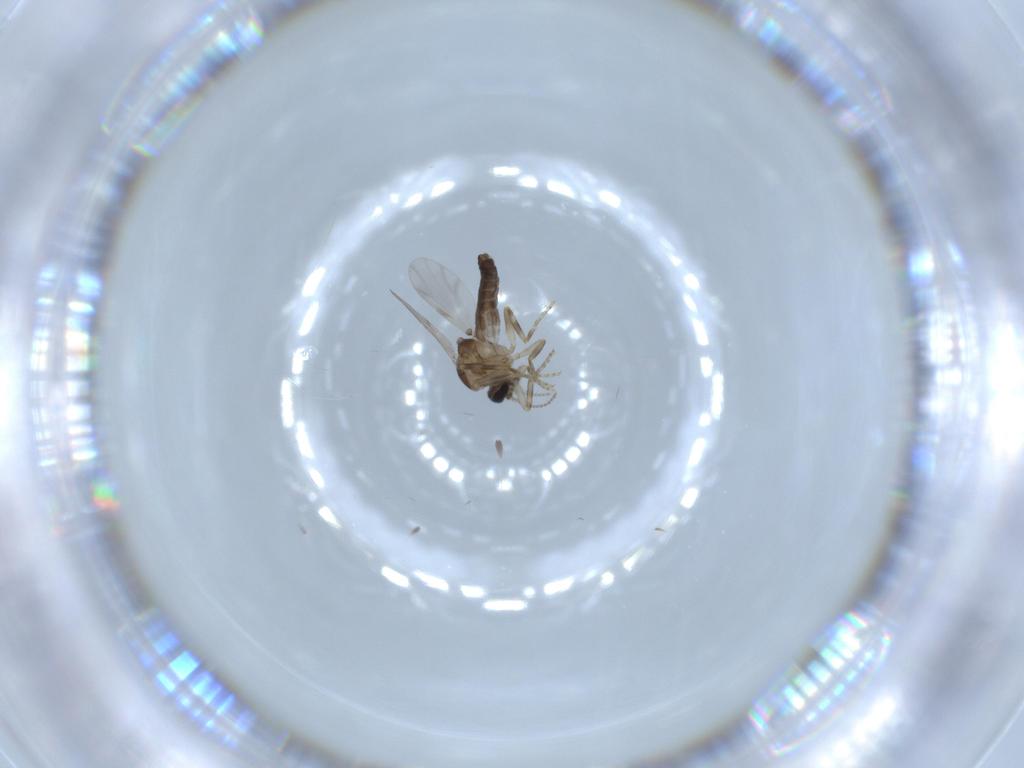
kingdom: Animalia
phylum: Arthropoda
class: Insecta
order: Diptera
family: Ceratopogonidae
